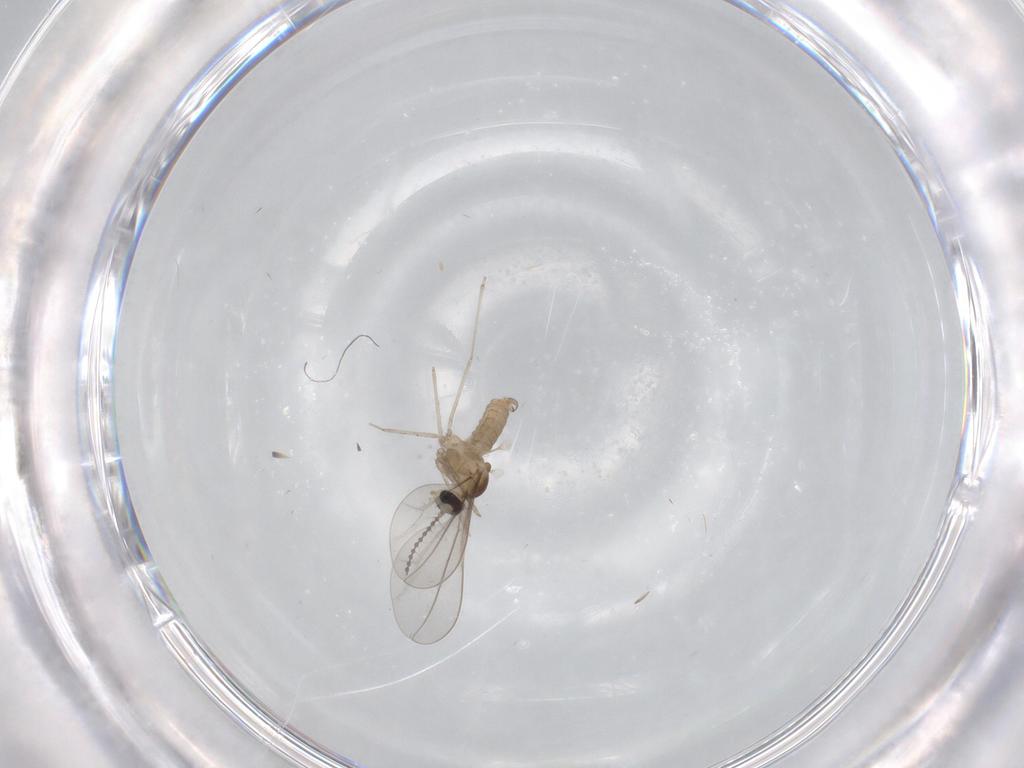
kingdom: Animalia
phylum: Arthropoda
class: Insecta
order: Diptera
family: Cecidomyiidae
